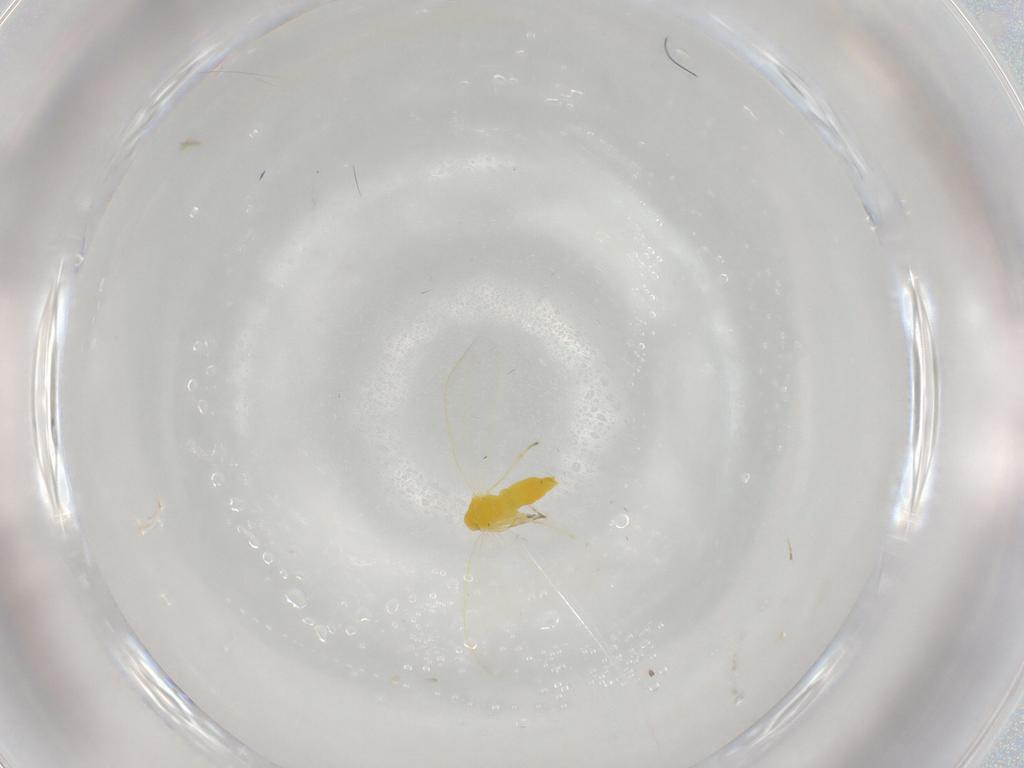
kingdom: Animalia
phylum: Arthropoda
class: Insecta
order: Hemiptera
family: Aleyrodidae
